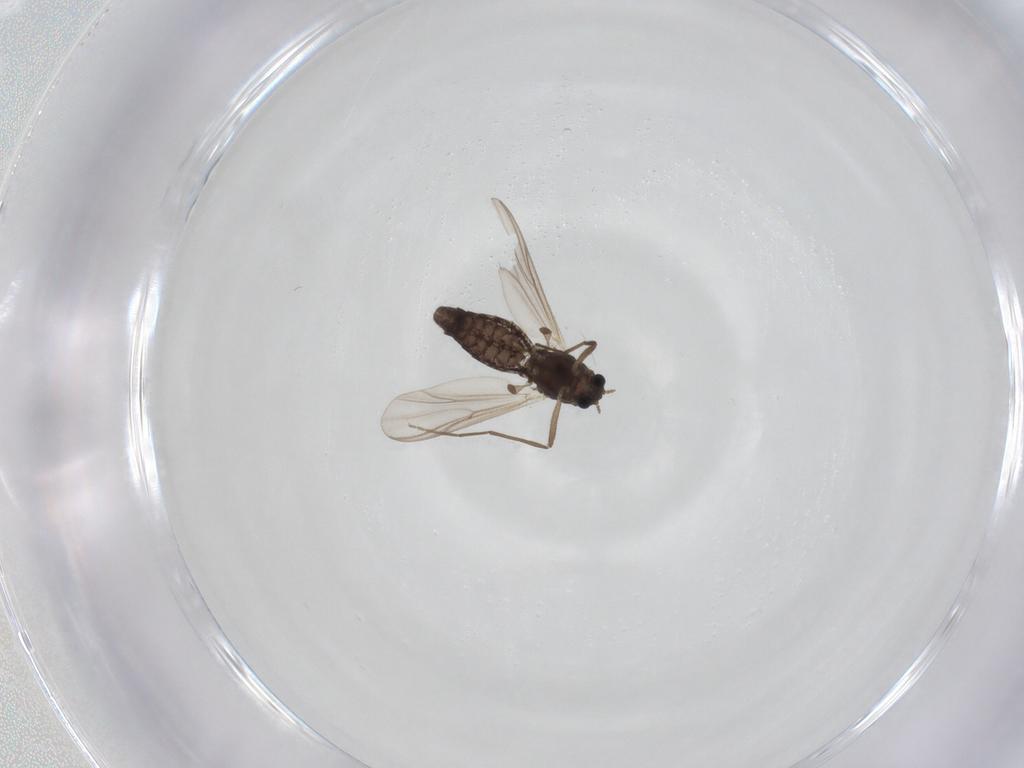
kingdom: Animalia
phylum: Arthropoda
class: Insecta
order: Diptera
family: Chironomidae
